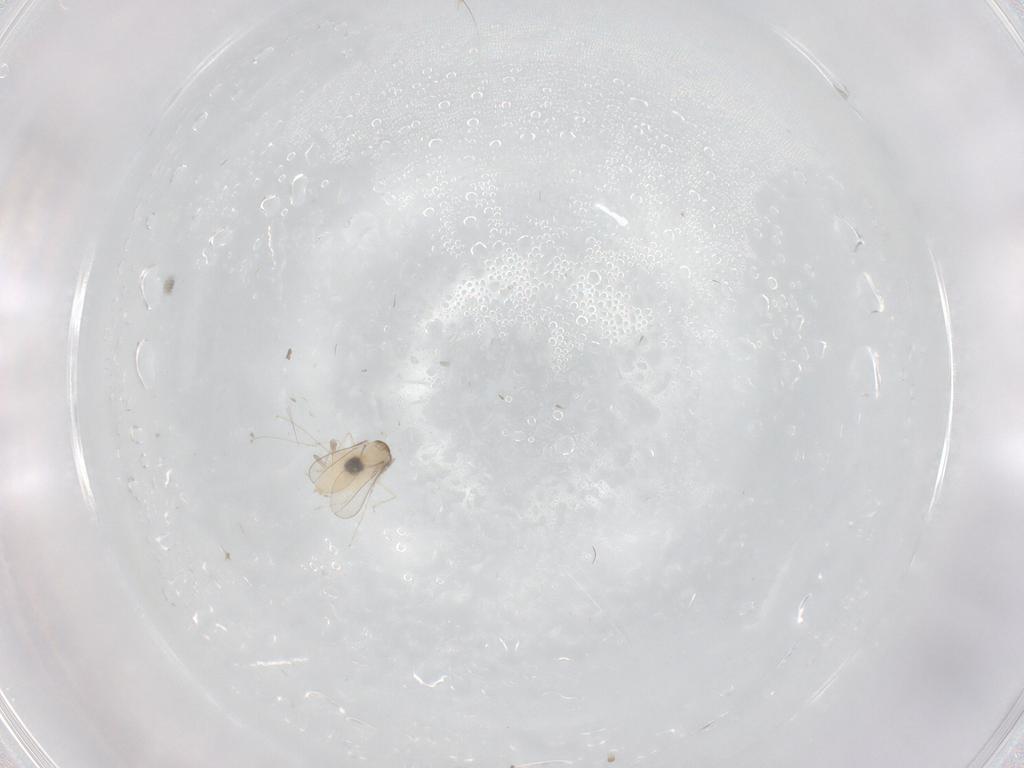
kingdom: Animalia
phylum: Arthropoda
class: Insecta
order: Diptera
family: Cecidomyiidae
